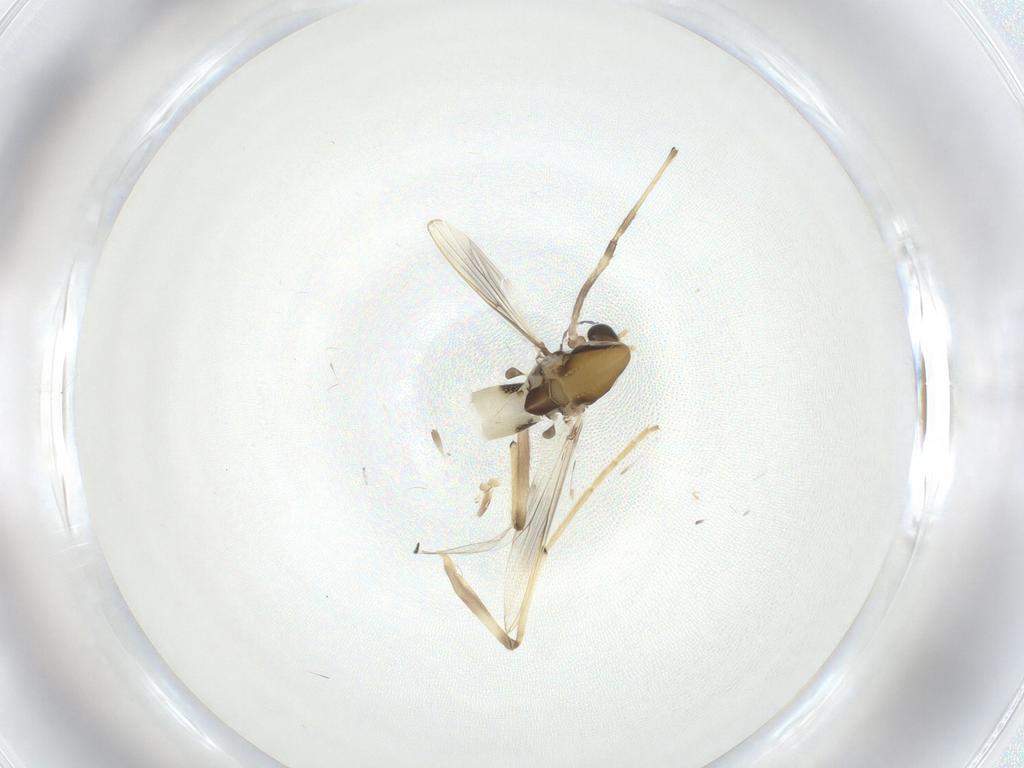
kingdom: Animalia
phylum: Arthropoda
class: Insecta
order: Diptera
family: Chironomidae
